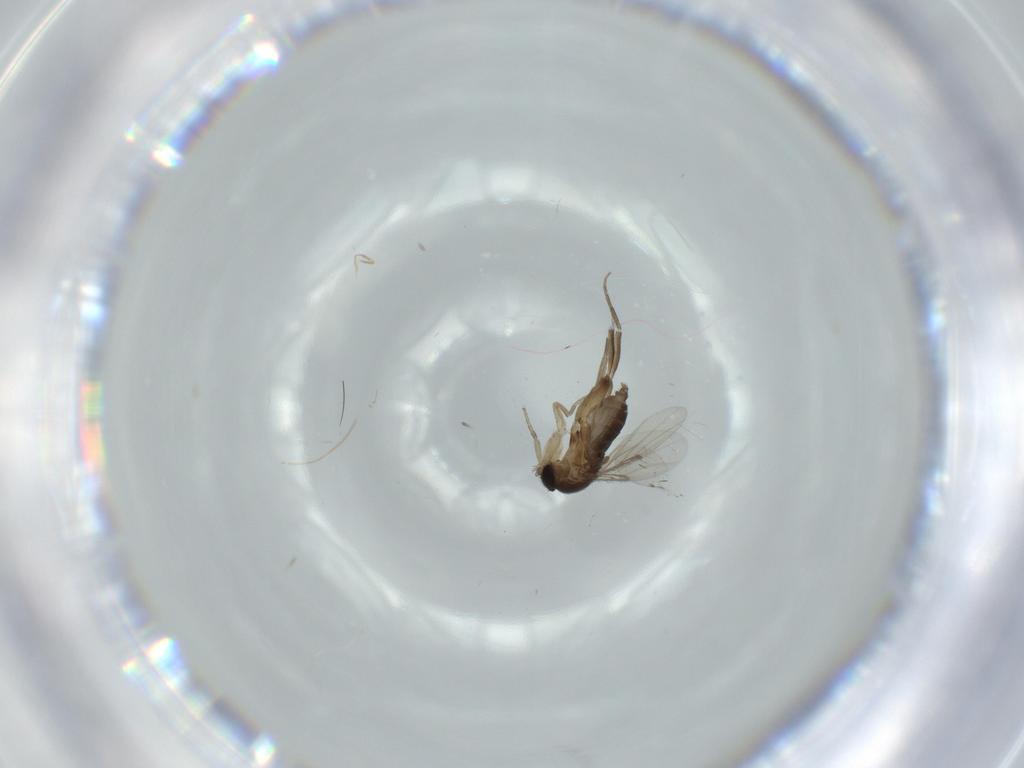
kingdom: Animalia
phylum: Arthropoda
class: Insecta
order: Diptera
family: Phoridae
